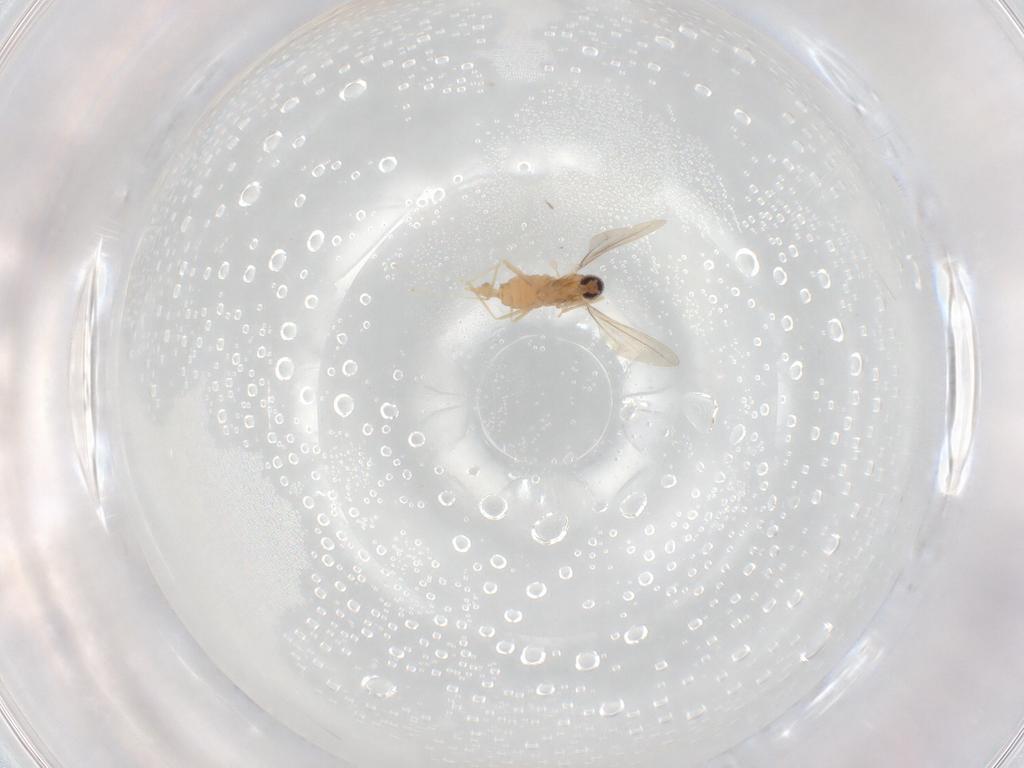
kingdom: Animalia
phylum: Arthropoda
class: Insecta
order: Diptera
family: Cecidomyiidae
